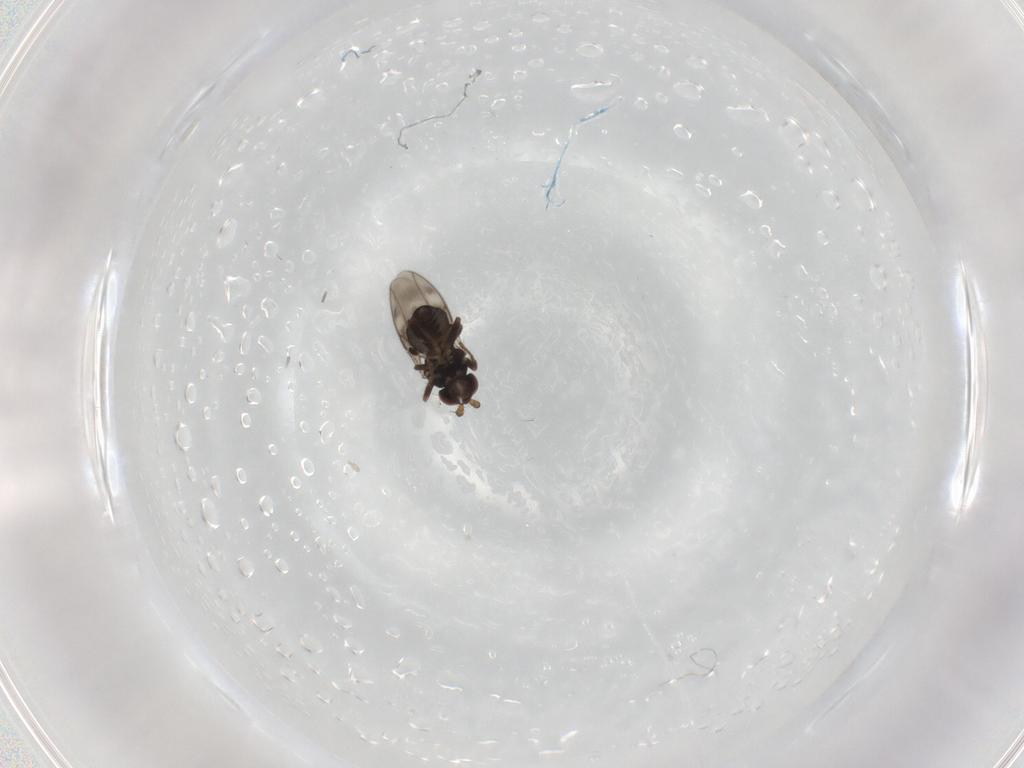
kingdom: Animalia
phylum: Arthropoda
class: Insecta
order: Diptera
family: Sphaeroceridae
